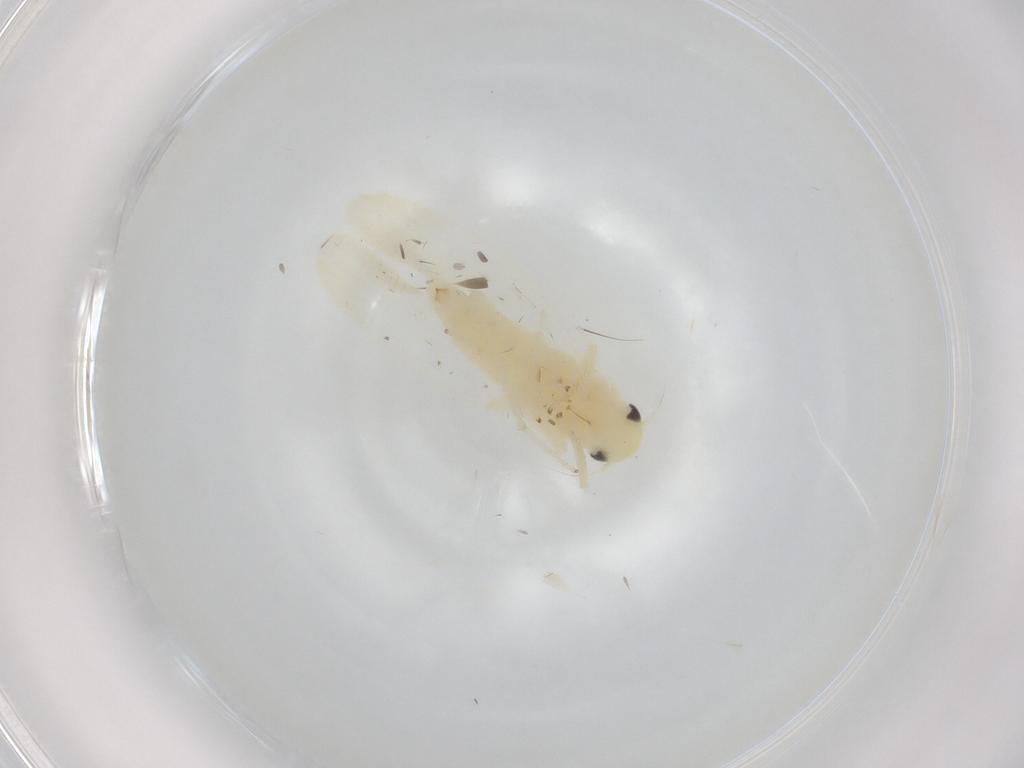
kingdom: Animalia
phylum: Arthropoda
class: Insecta
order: Hemiptera
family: Cicadellidae
